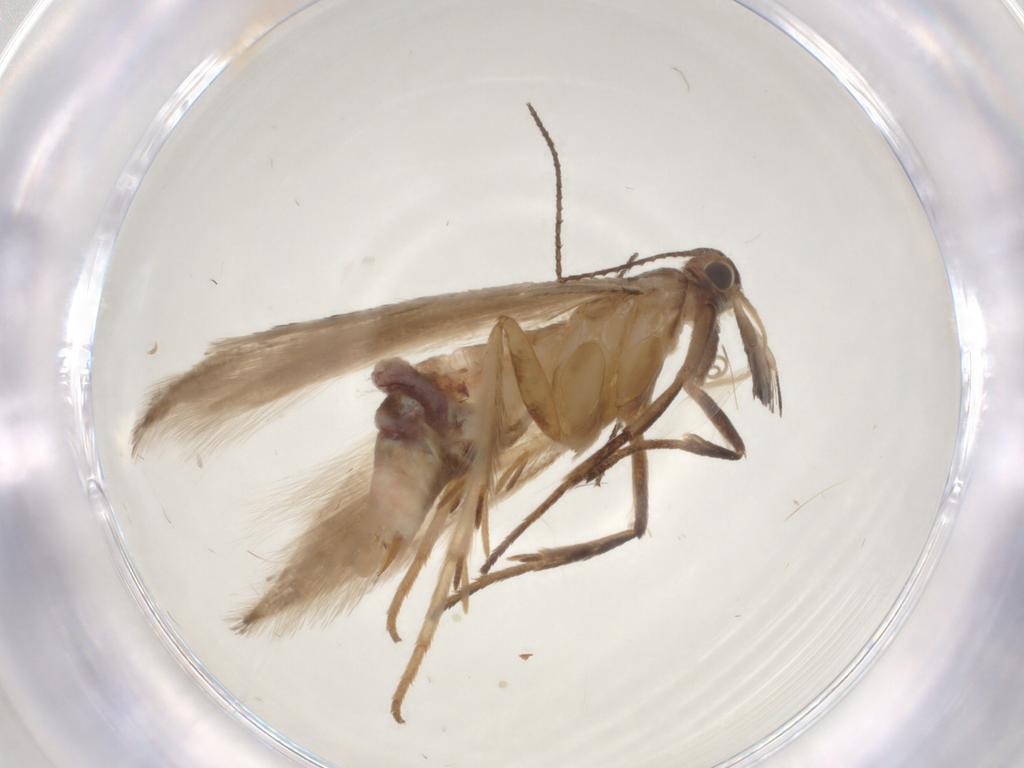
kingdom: Animalia
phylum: Arthropoda
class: Insecta
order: Lepidoptera
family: Gelechiidae
